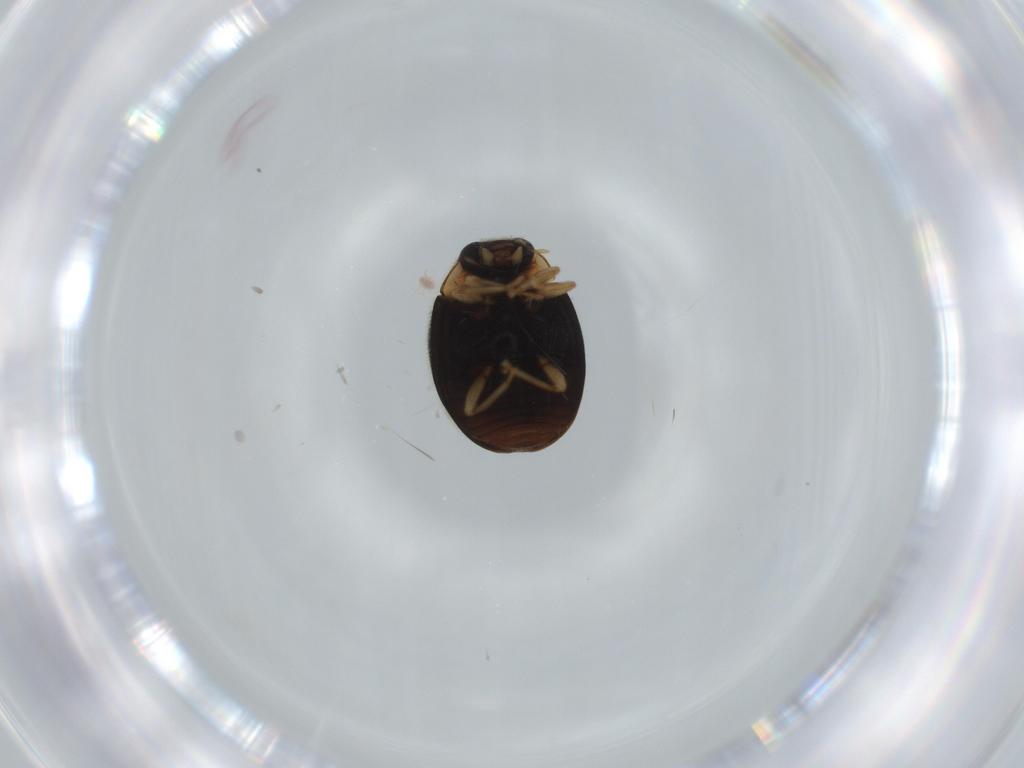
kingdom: Animalia
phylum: Arthropoda
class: Insecta
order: Coleoptera
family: Coccinellidae
